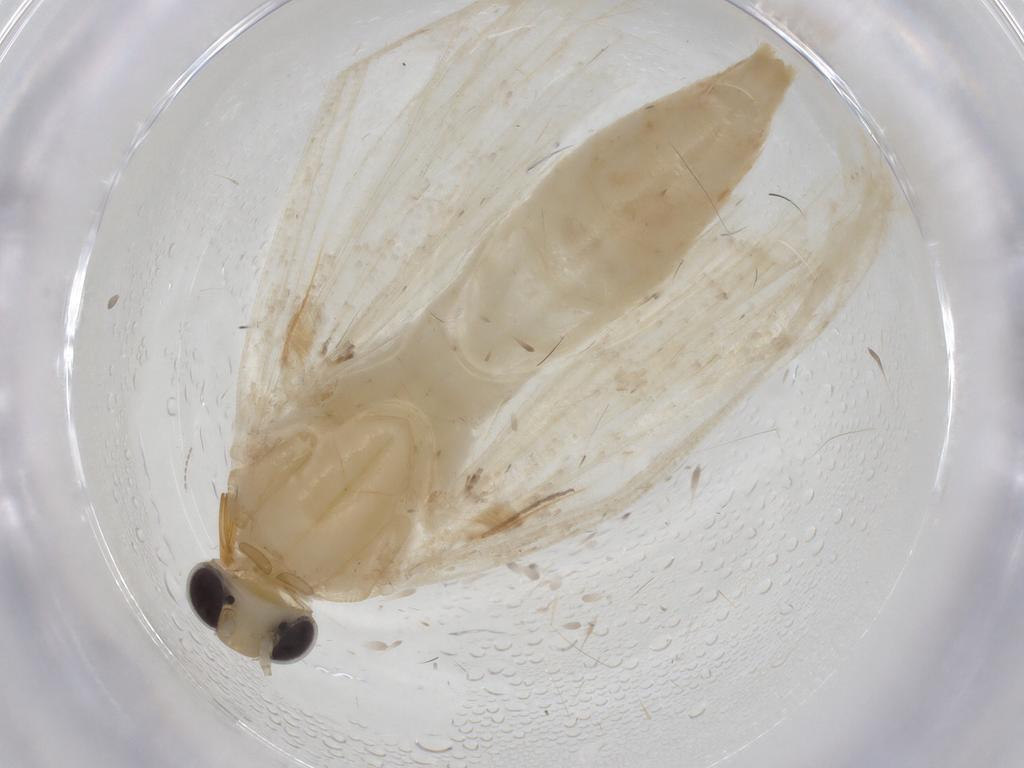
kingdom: Animalia
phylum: Arthropoda
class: Insecta
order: Lepidoptera
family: Crambidae
